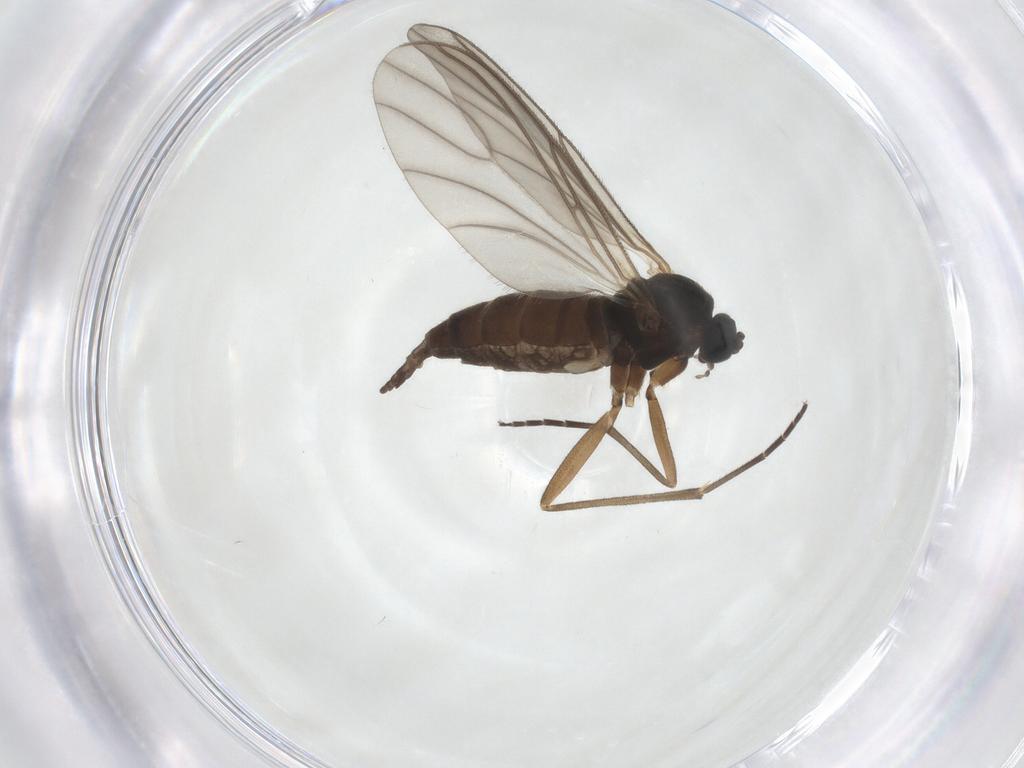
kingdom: Animalia
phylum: Arthropoda
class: Insecta
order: Diptera
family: Sciaridae
